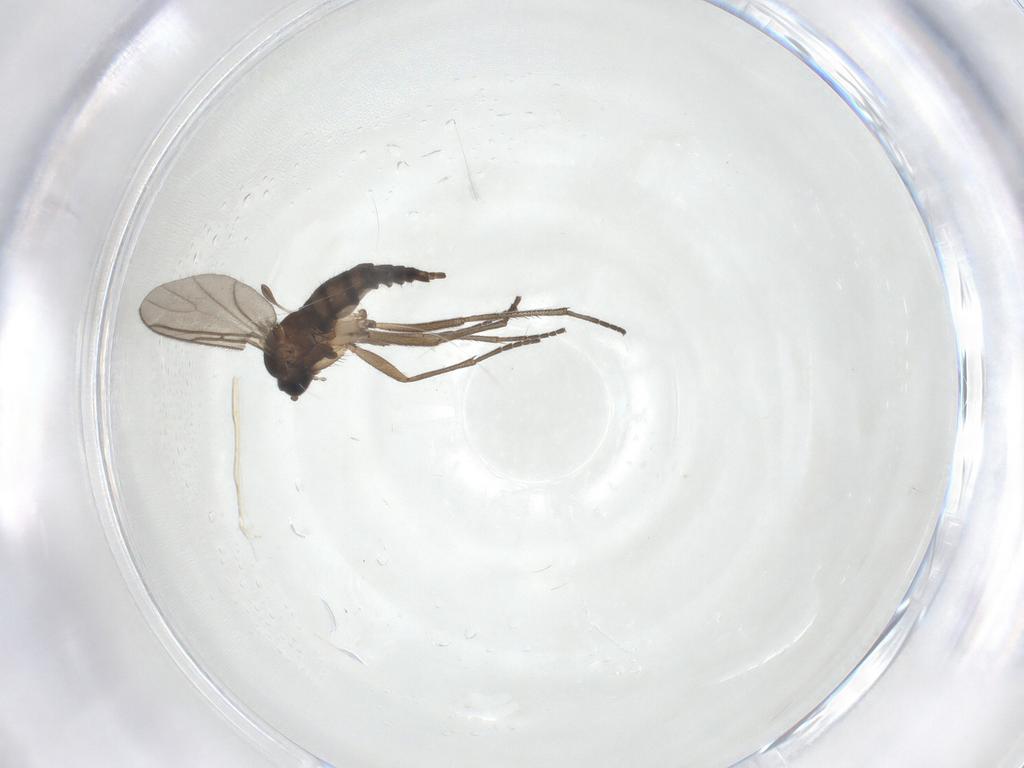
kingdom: Animalia
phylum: Arthropoda
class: Insecta
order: Diptera
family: Sciaridae
